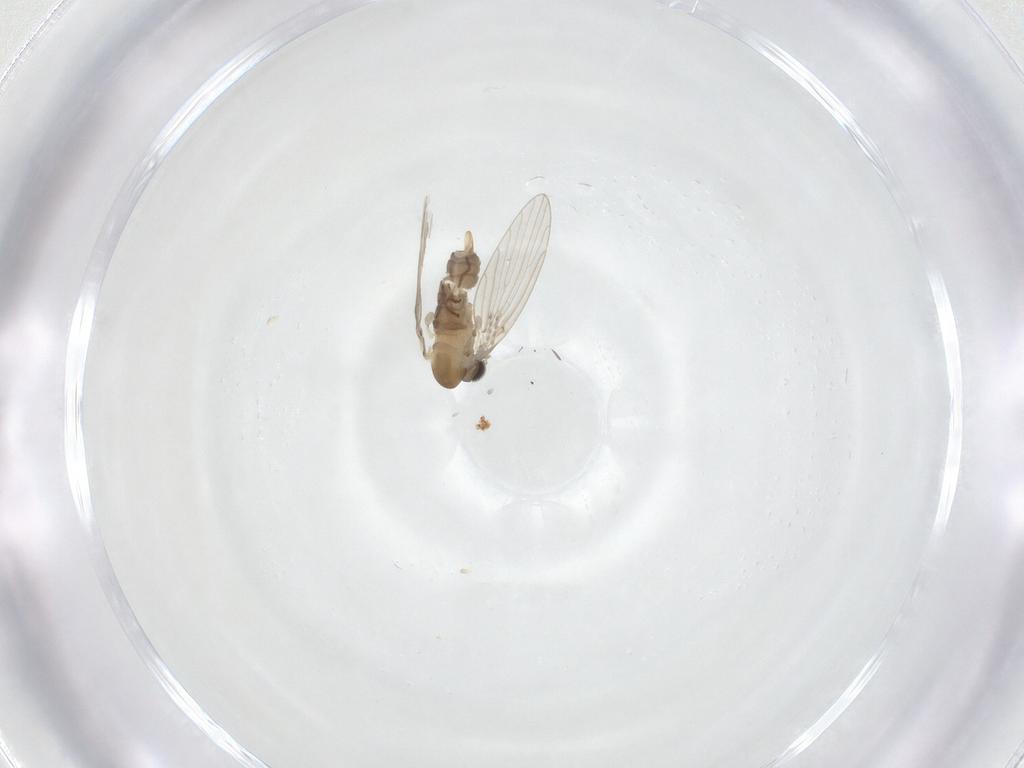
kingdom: Animalia
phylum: Arthropoda
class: Insecta
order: Diptera
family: Psychodidae
